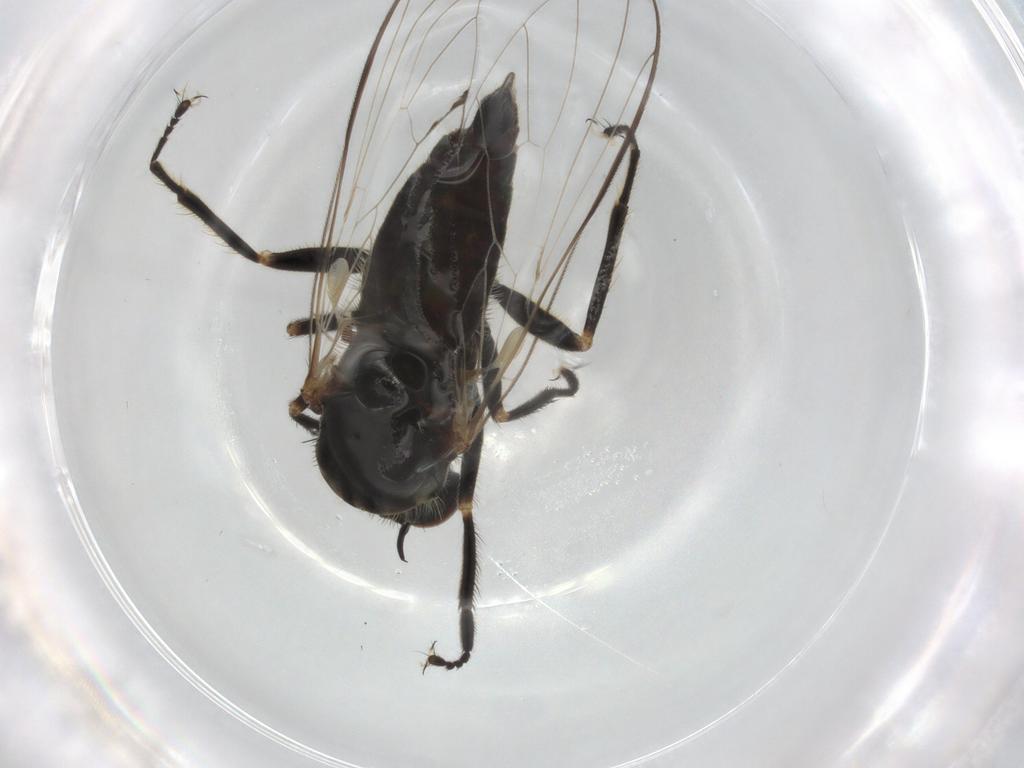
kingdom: Animalia
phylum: Arthropoda
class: Insecta
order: Diptera
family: Empididae
